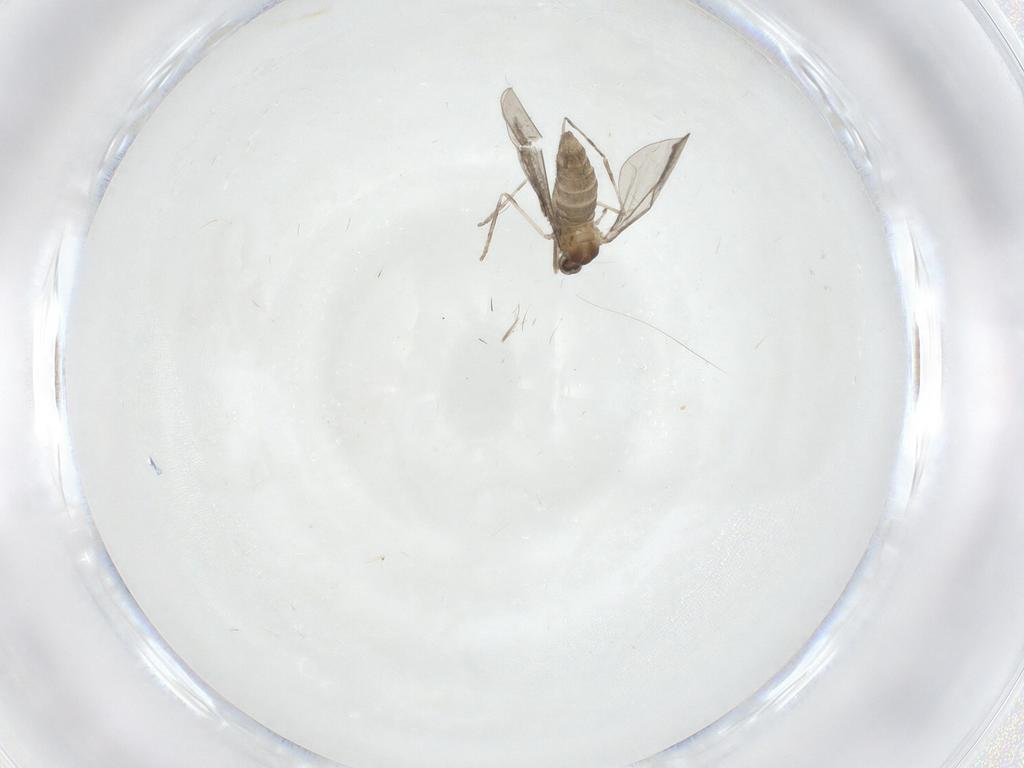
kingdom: Animalia
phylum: Arthropoda
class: Insecta
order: Diptera
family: Cecidomyiidae
